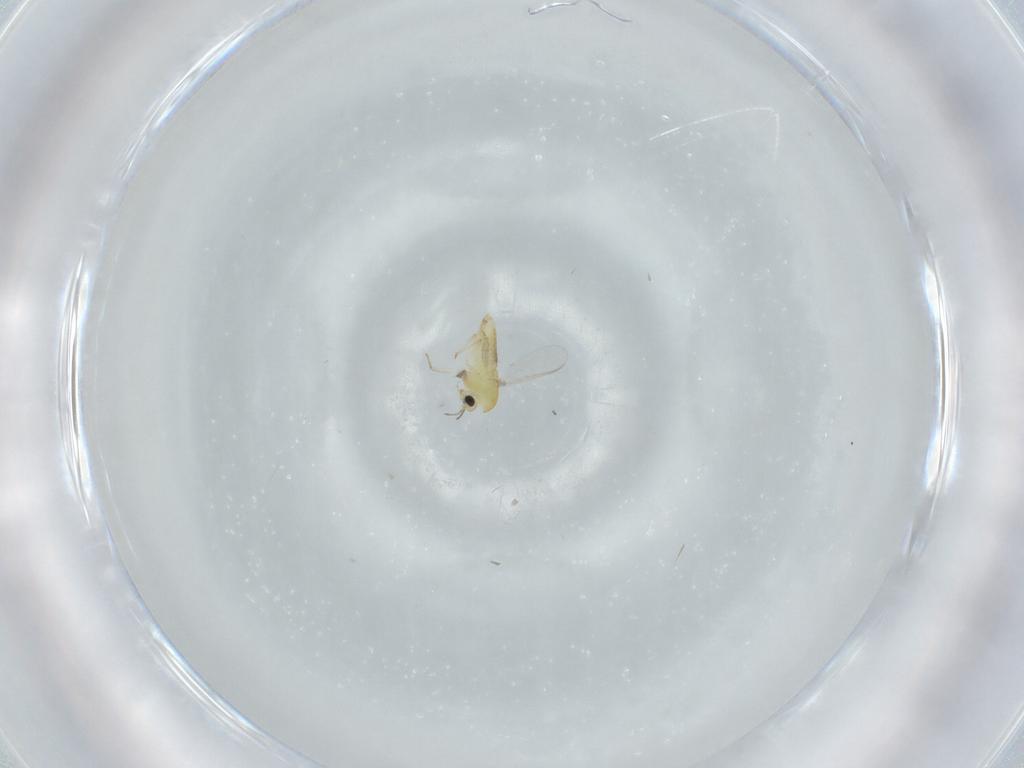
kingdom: Animalia
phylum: Arthropoda
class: Insecta
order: Diptera
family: Chironomidae
